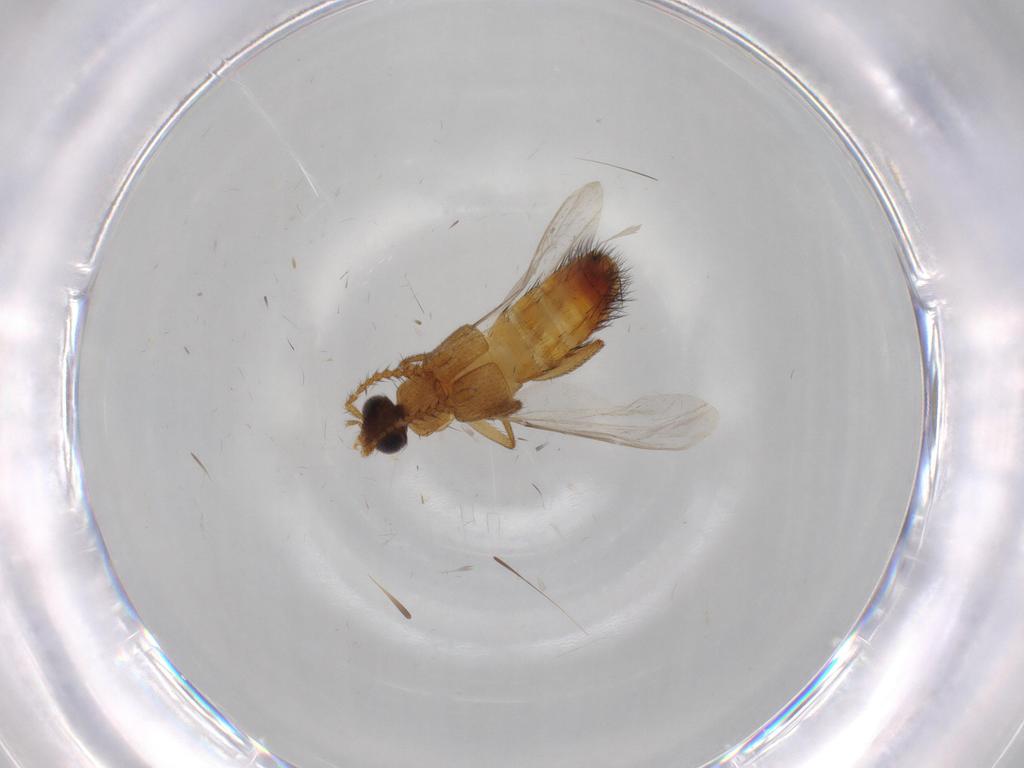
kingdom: Animalia
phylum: Arthropoda
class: Insecta
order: Coleoptera
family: Staphylinidae
